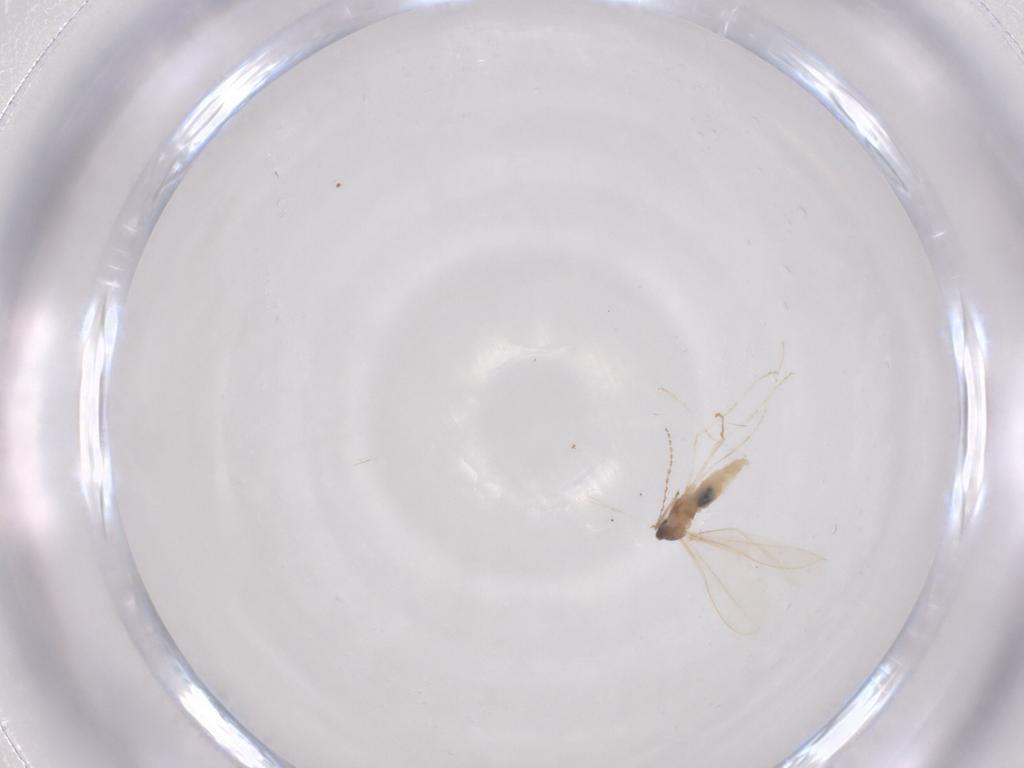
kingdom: Animalia
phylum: Arthropoda
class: Insecta
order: Diptera
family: Cecidomyiidae
